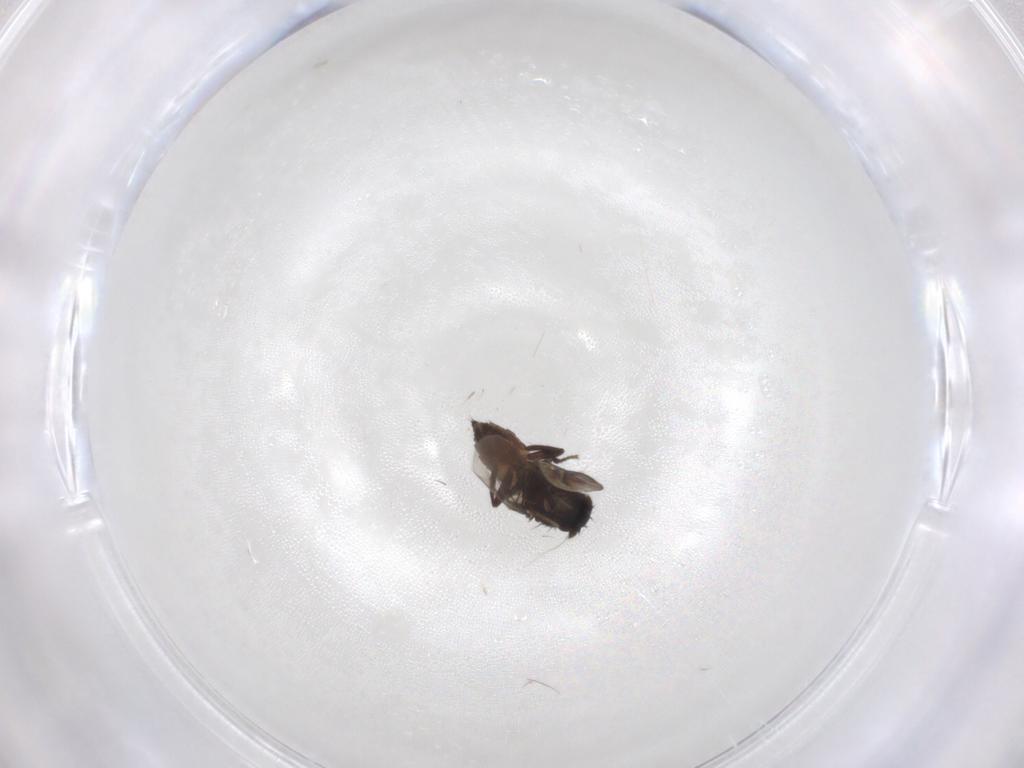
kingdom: Animalia
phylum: Arthropoda
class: Insecta
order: Diptera
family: Chironomidae
